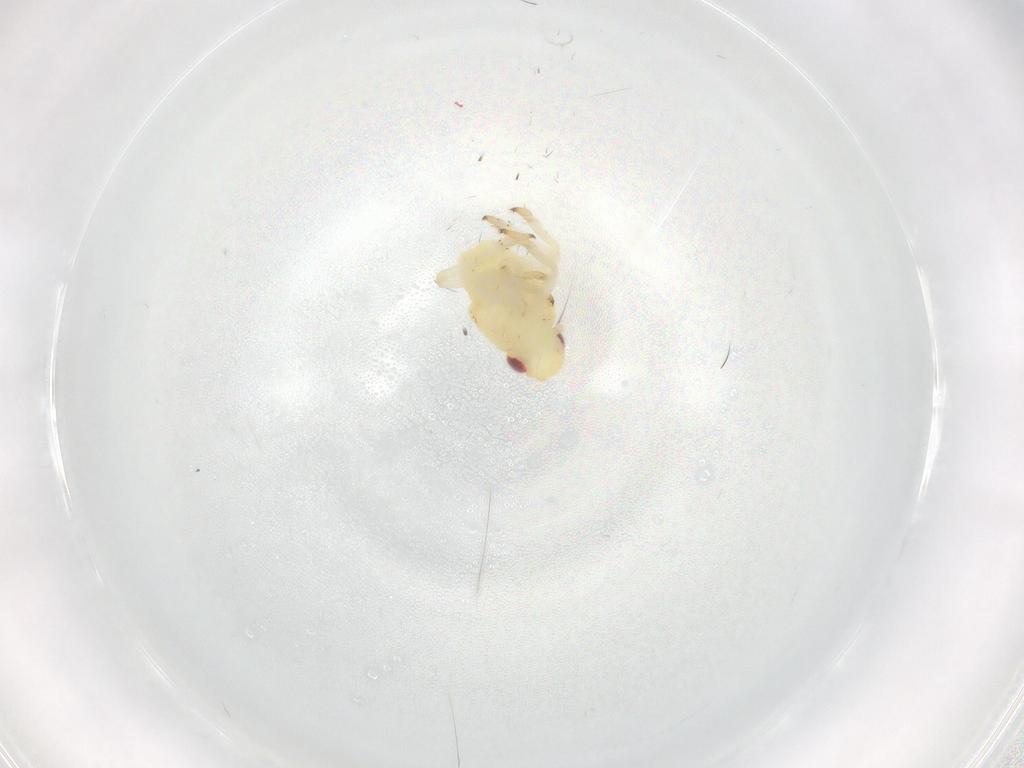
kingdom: Animalia
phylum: Arthropoda
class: Insecta
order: Hemiptera
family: Caliscelidae
